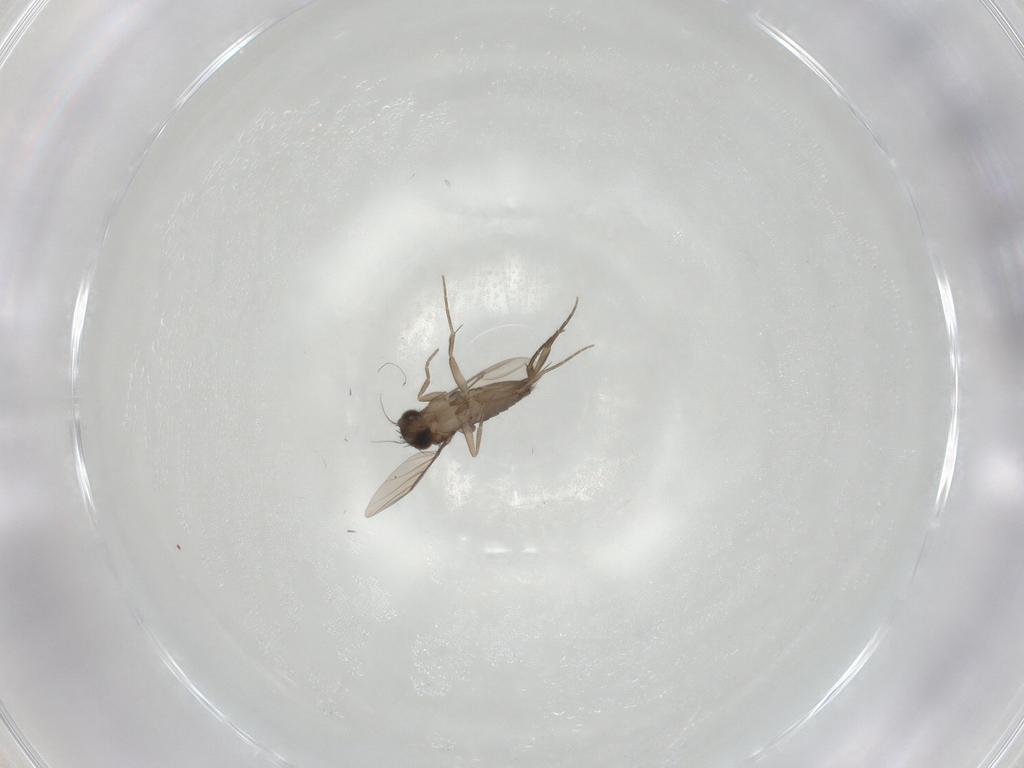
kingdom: Animalia
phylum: Arthropoda
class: Insecta
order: Diptera
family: Phoridae
